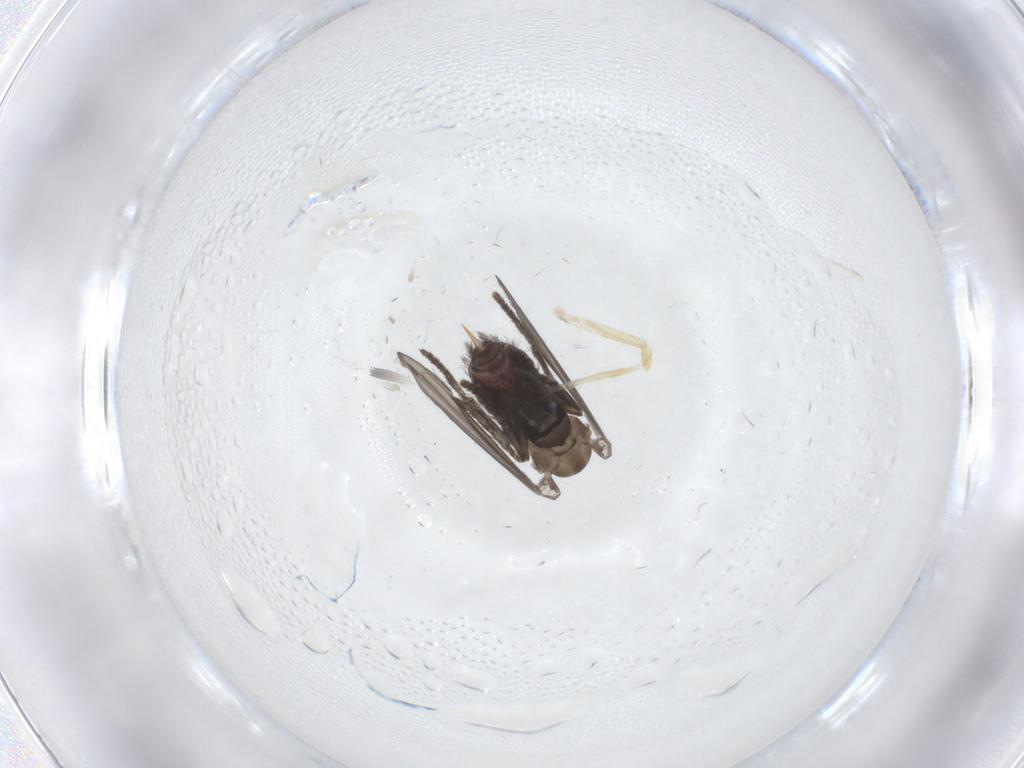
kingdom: Animalia
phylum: Arthropoda
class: Insecta
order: Diptera
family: Psychodidae
